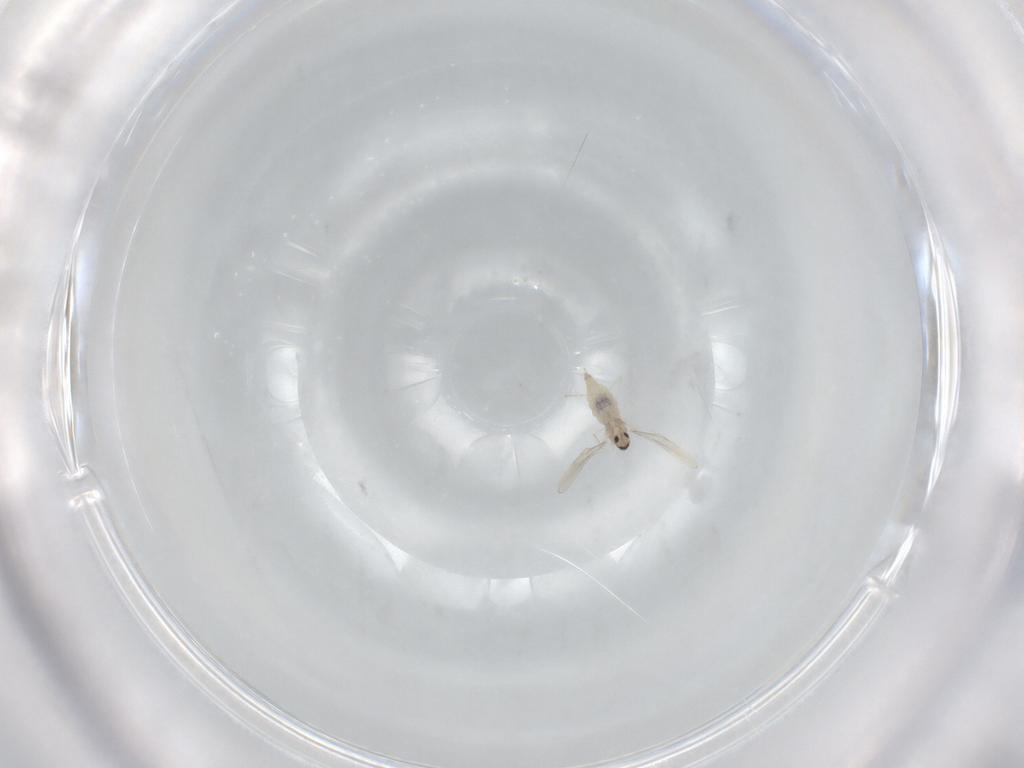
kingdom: Animalia
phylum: Arthropoda
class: Insecta
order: Diptera
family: Cecidomyiidae
